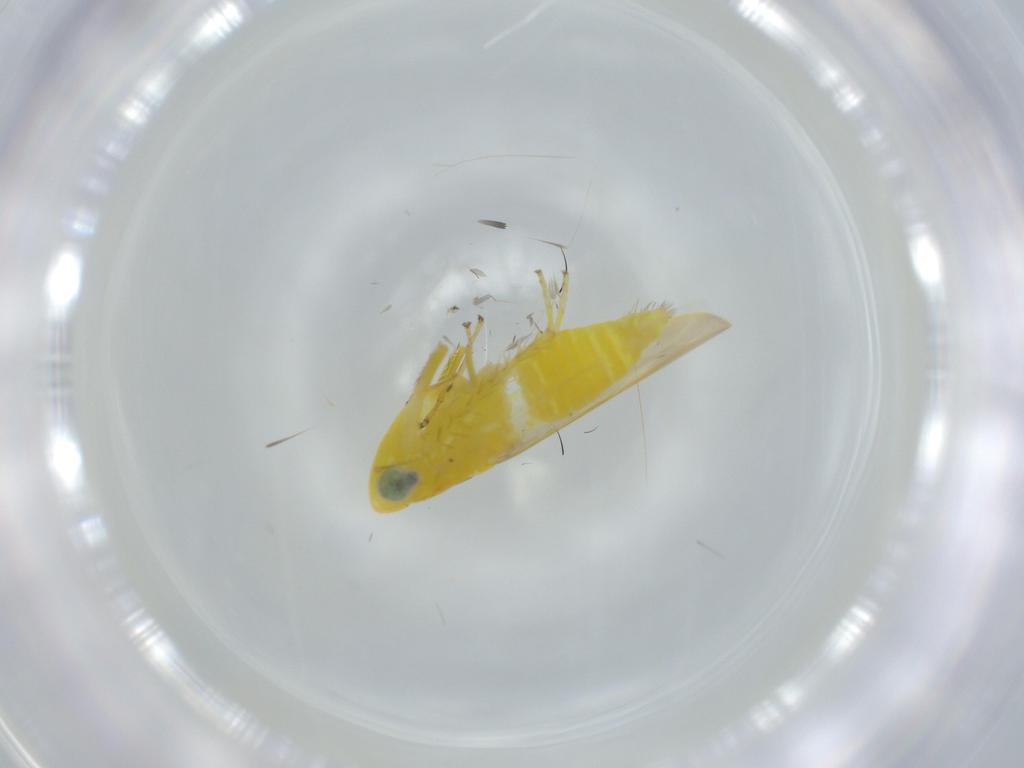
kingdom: Animalia
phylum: Arthropoda
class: Insecta
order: Hemiptera
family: Cicadellidae
